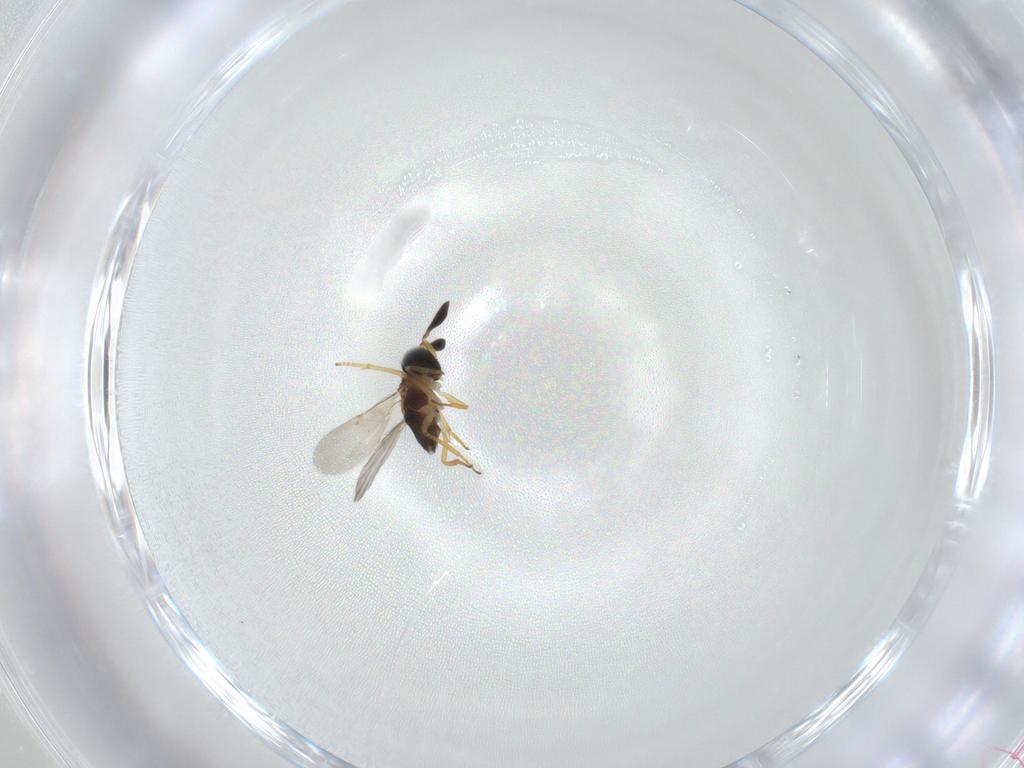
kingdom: Animalia
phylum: Arthropoda
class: Insecta
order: Hymenoptera
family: Encyrtidae
